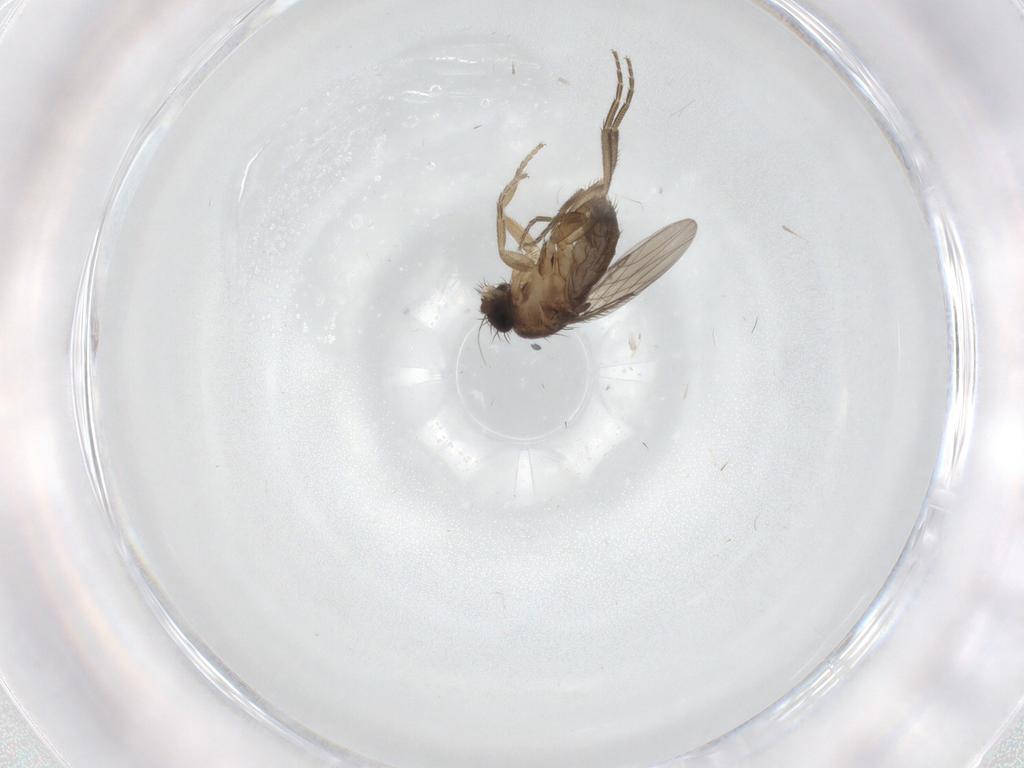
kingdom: Animalia
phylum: Arthropoda
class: Insecta
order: Diptera
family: Phoridae
